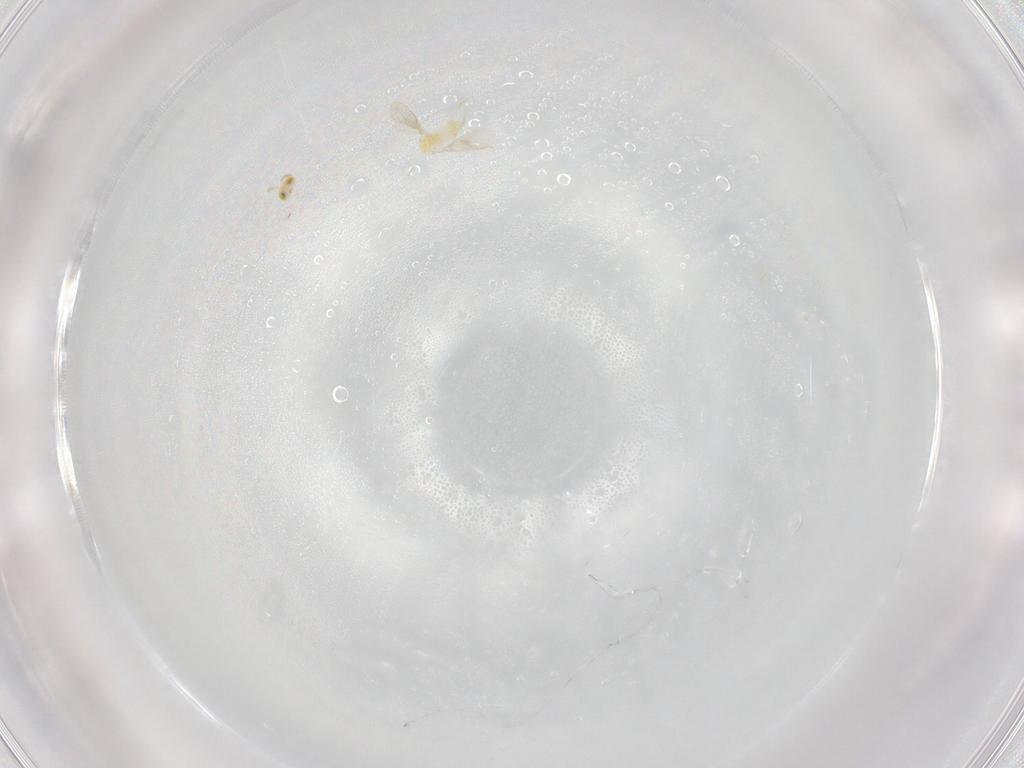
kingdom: Animalia
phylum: Arthropoda
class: Insecta
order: Hymenoptera
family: Aphelinidae
